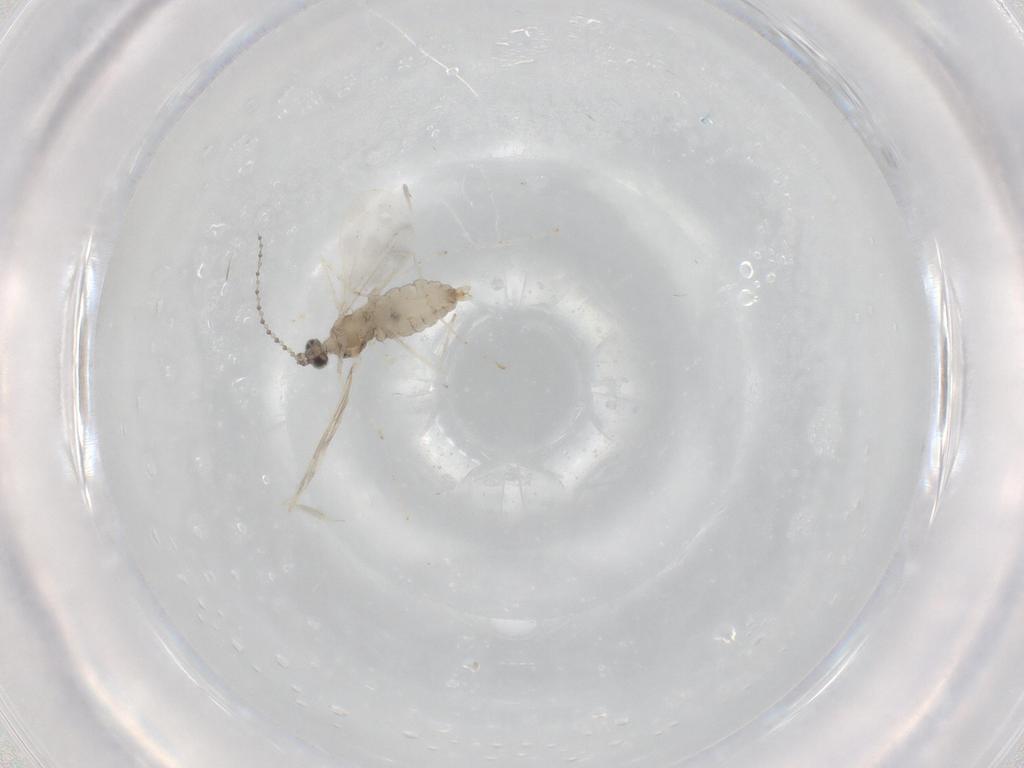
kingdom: Animalia
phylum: Arthropoda
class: Insecta
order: Diptera
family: Cecidomyiidae
